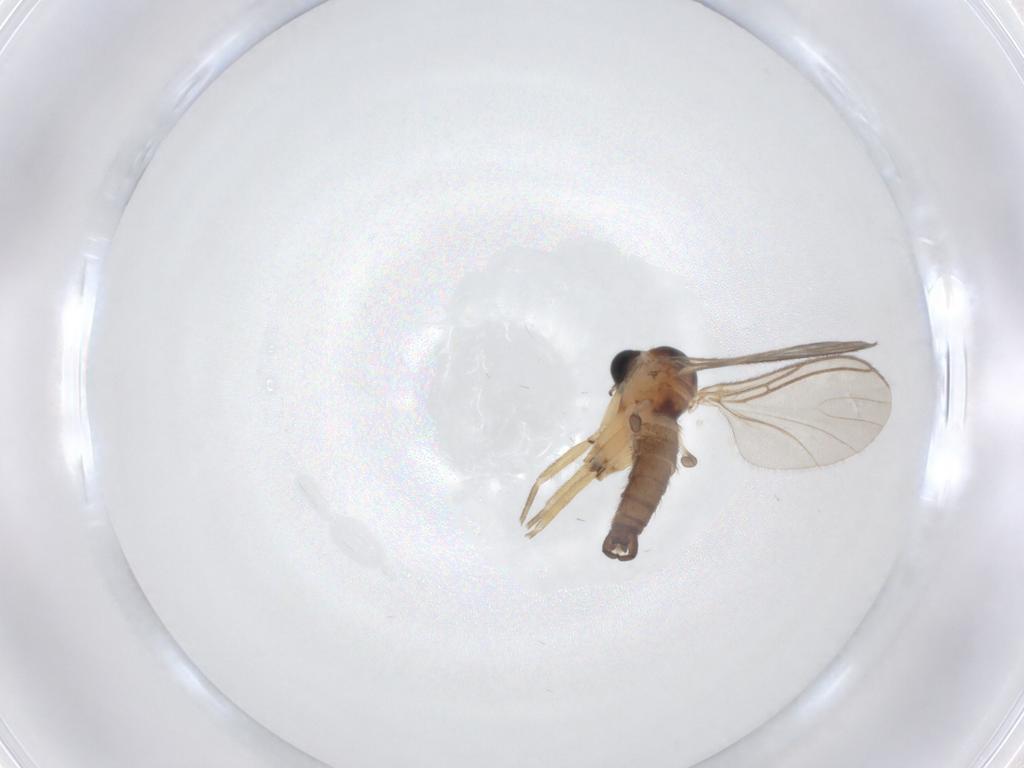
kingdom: Animalia
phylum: Arthropoda
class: Insecta
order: Diptera
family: Sciaridae
